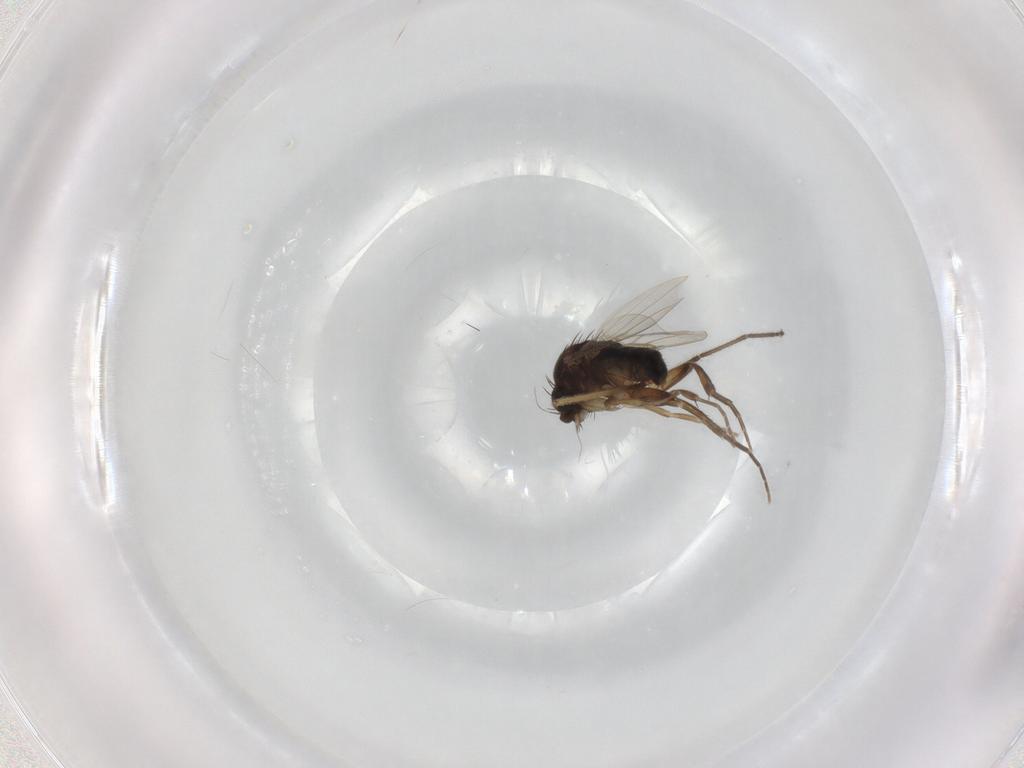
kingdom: Animalia
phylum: Arthropoda
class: Insecta
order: Diptera
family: Phoridae
